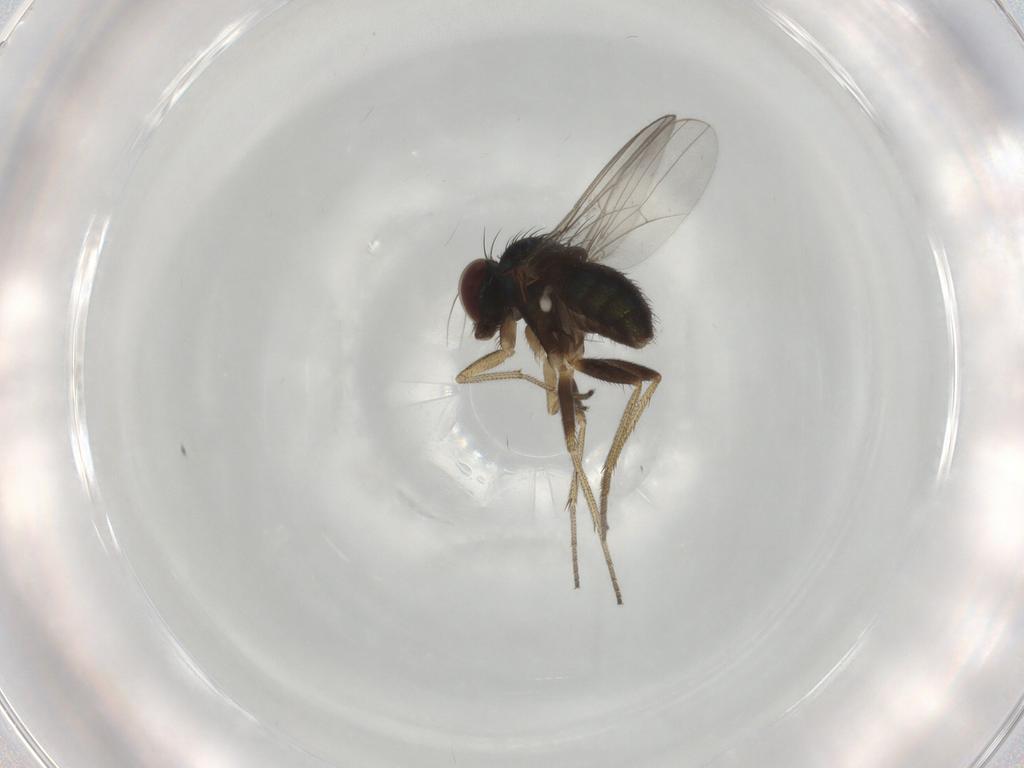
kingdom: Animalia
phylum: Arthropoda
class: Insecta
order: Diptera
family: Dolichopodidae
